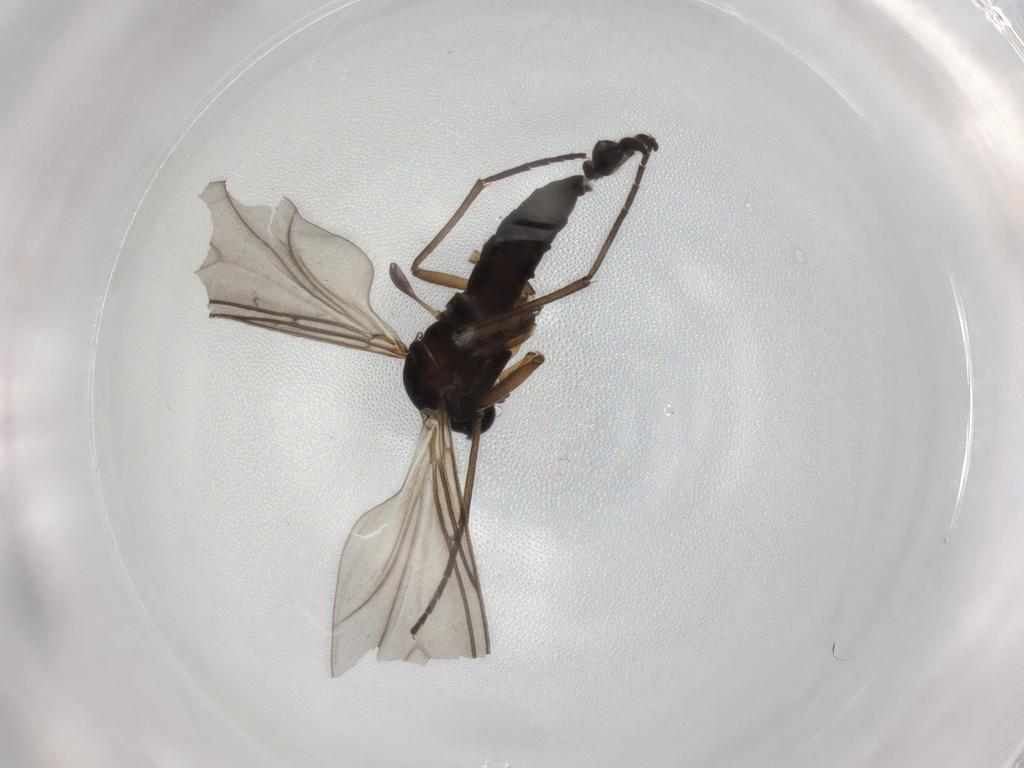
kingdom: Animalia
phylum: Arthropoda
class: Insecta
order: Diptera
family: Sciaridae
